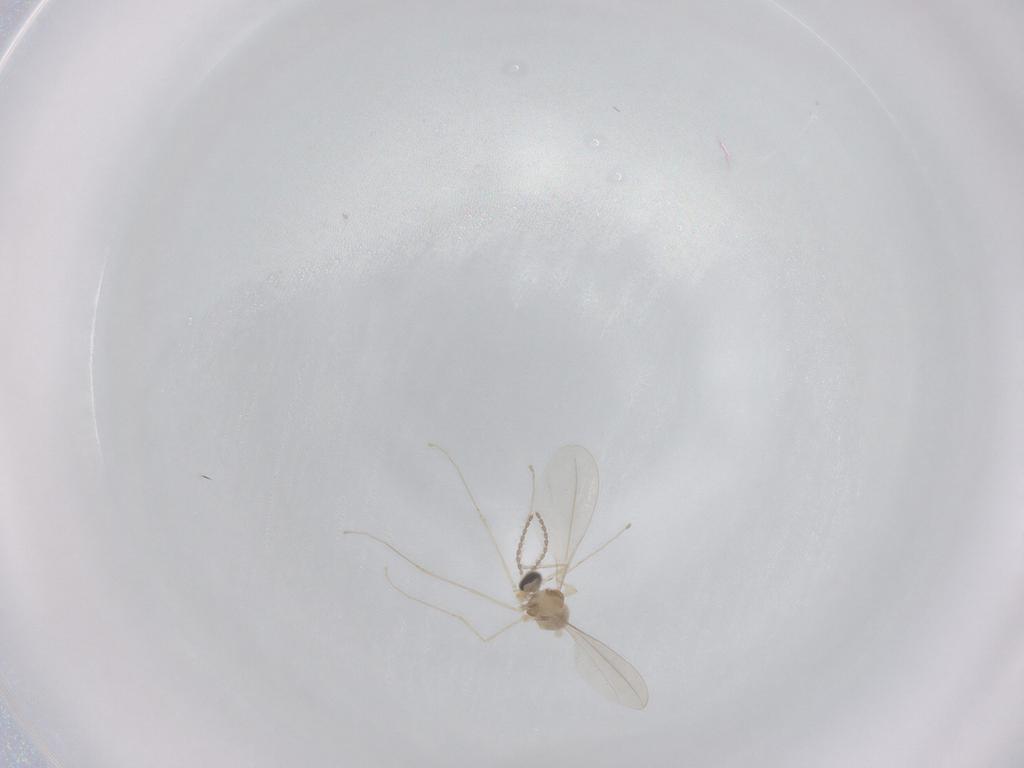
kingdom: Animalia
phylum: Arthropoda
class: Insecta
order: Diptera
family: Cecidomyiidae
